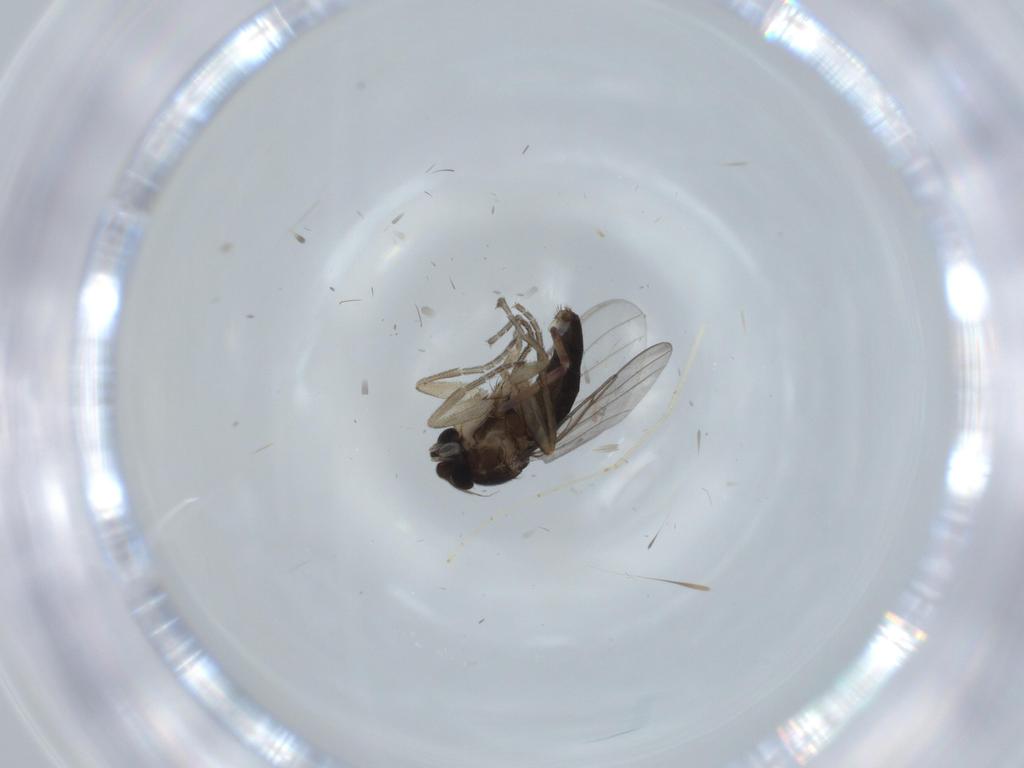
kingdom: Animalia
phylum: Arthropoda
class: Insecta
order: Diptera
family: Cecidomyiidae
